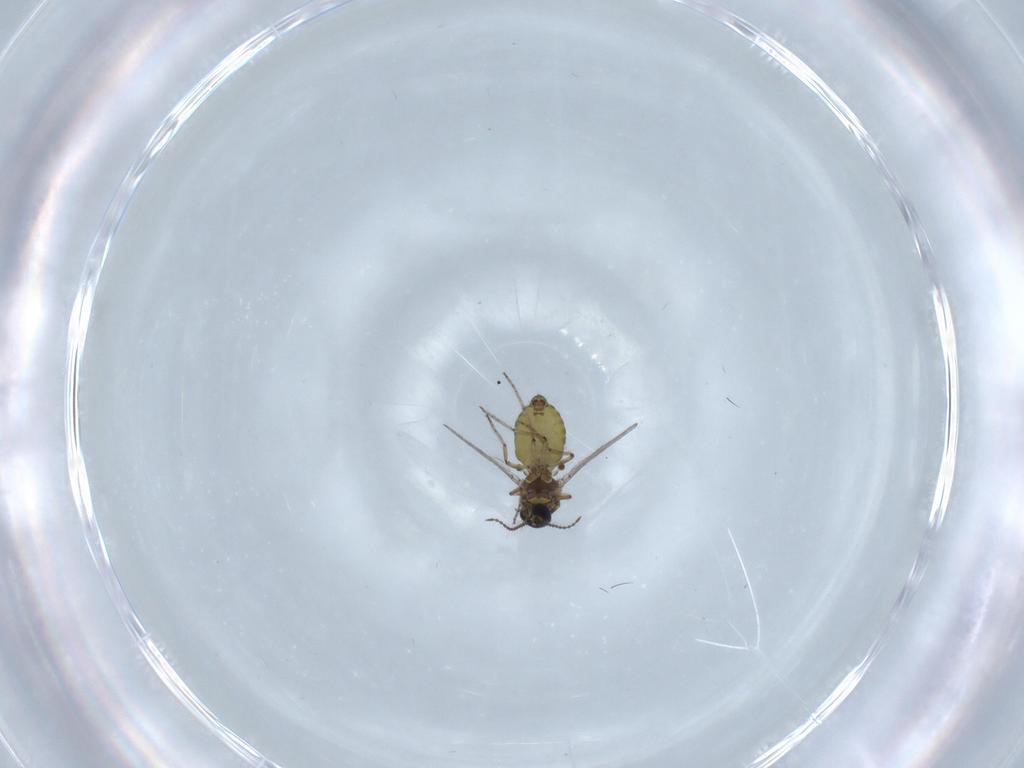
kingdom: Animalia
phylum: Arthropoda
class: Insecta
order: Diptera
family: Ceratopogonidae
